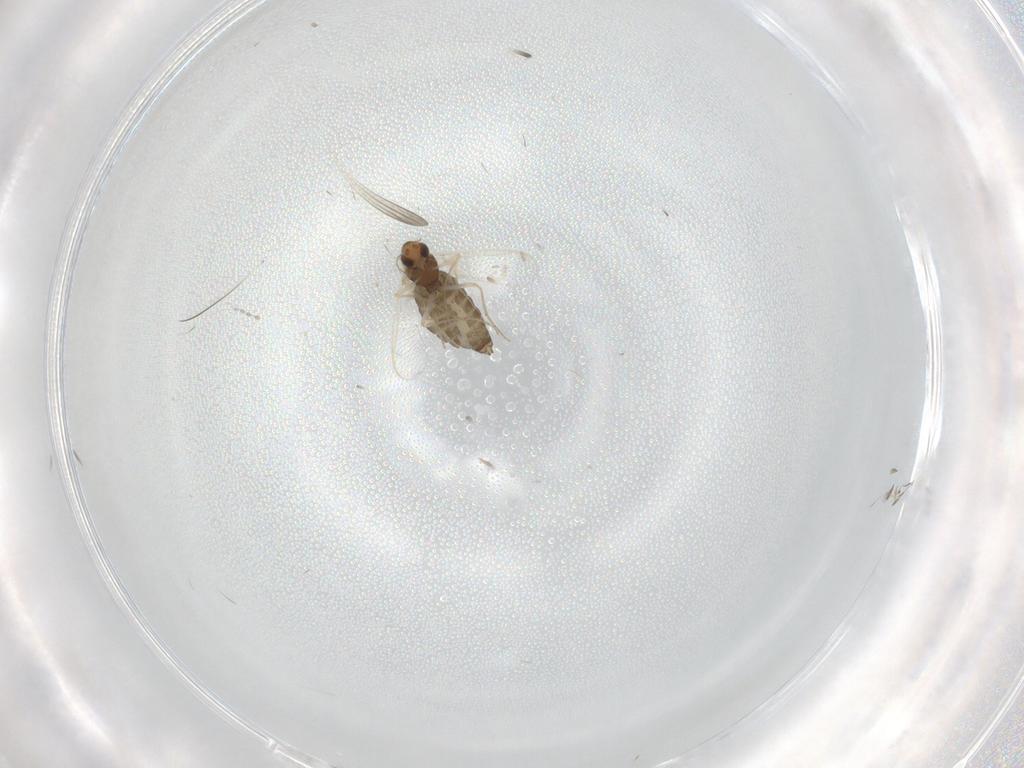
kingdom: Animalia
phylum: Arthropoda
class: Insecta
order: Diptera
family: Chironomidae
